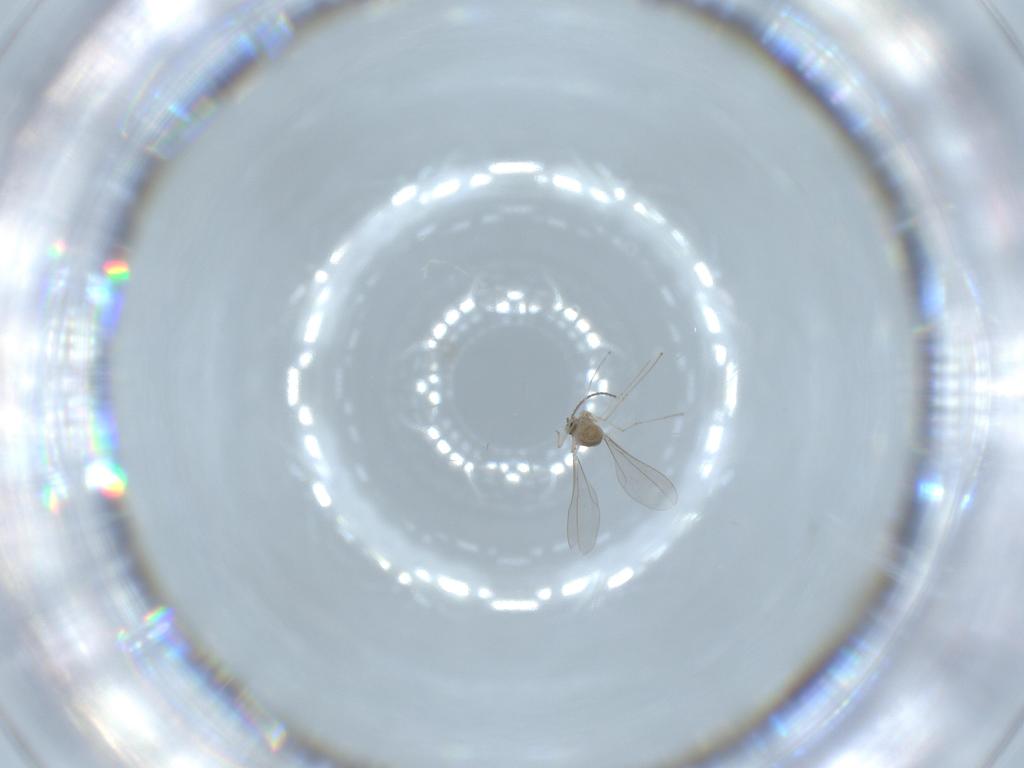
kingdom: Animalia
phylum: Arthropoda
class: Insecta
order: Diptera
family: Cecidomyiidae
